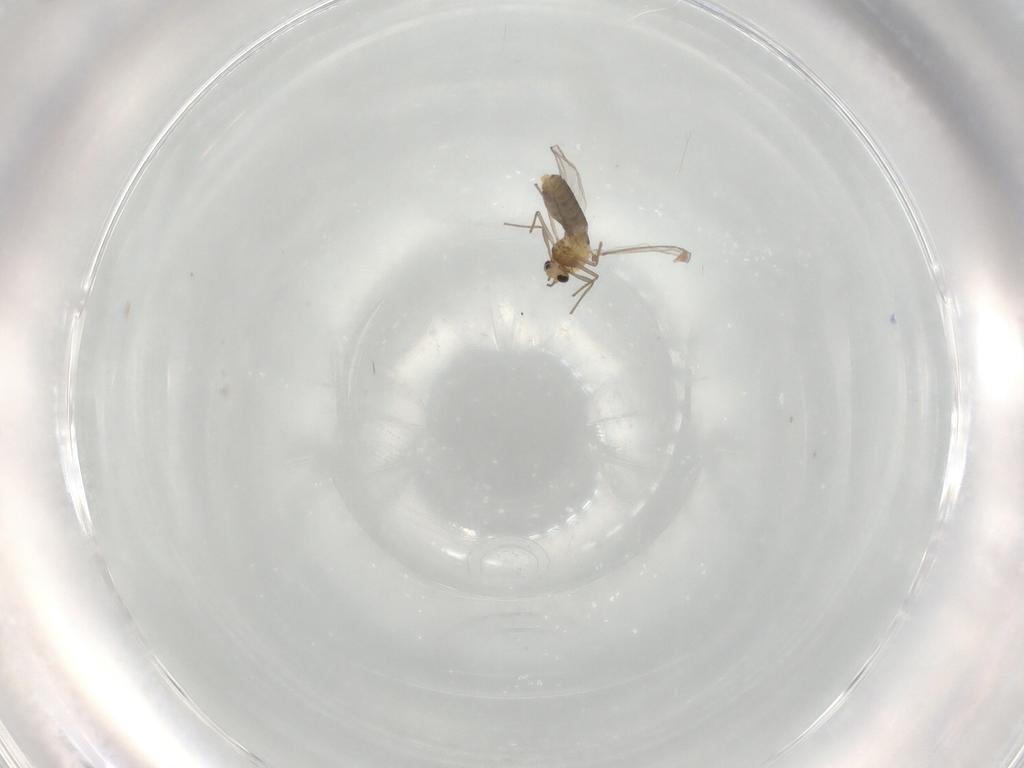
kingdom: Animalia
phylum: Arthropoda
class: Insecta
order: Diptera
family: Chironomidae
